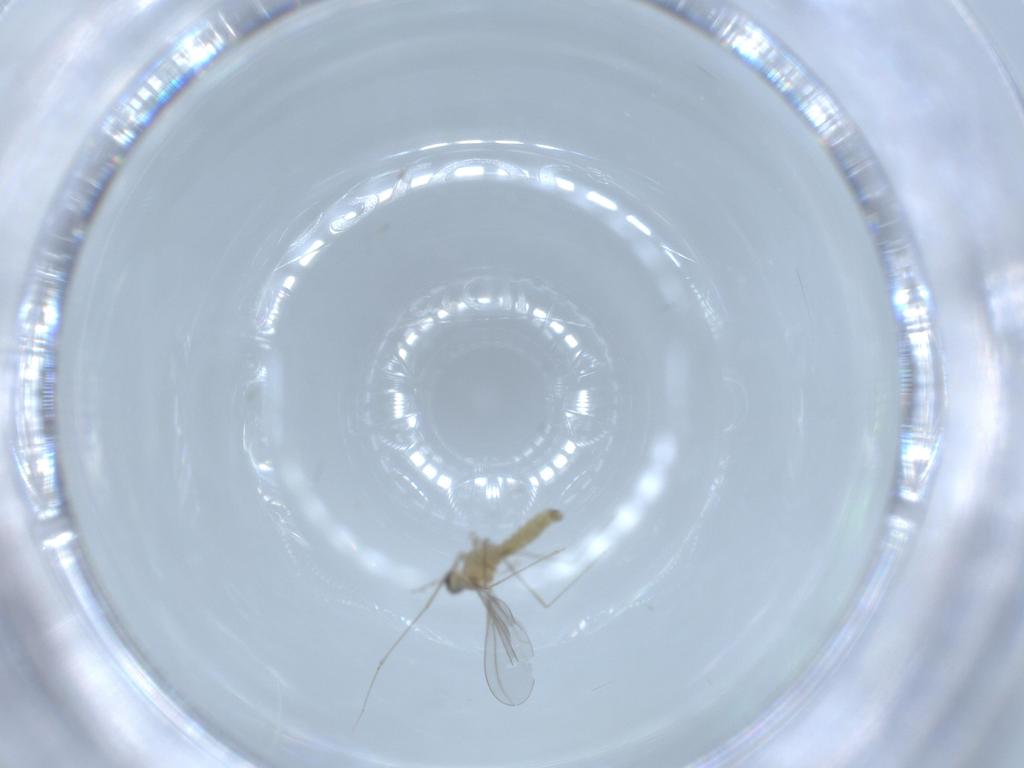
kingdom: Animalia
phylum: Arthropoda
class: Insecta
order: Diptera
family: Cecidomyiidae
